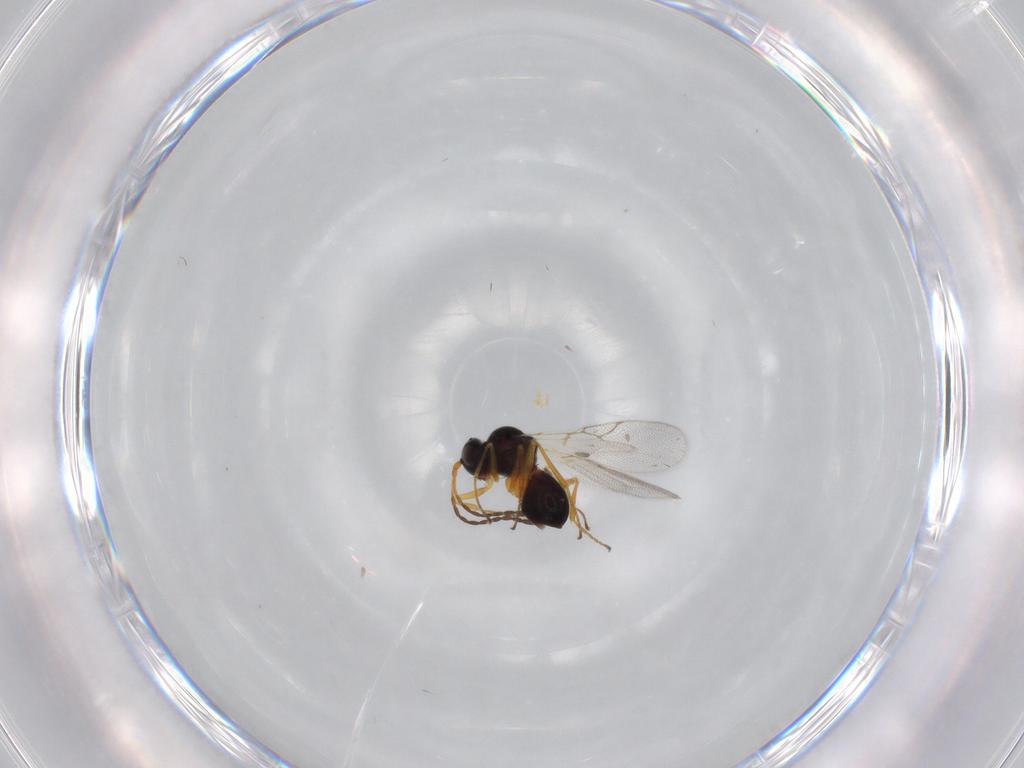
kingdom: Animalia
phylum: Arthropoda
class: Insecta
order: Hymenoptera
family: Figitidae
